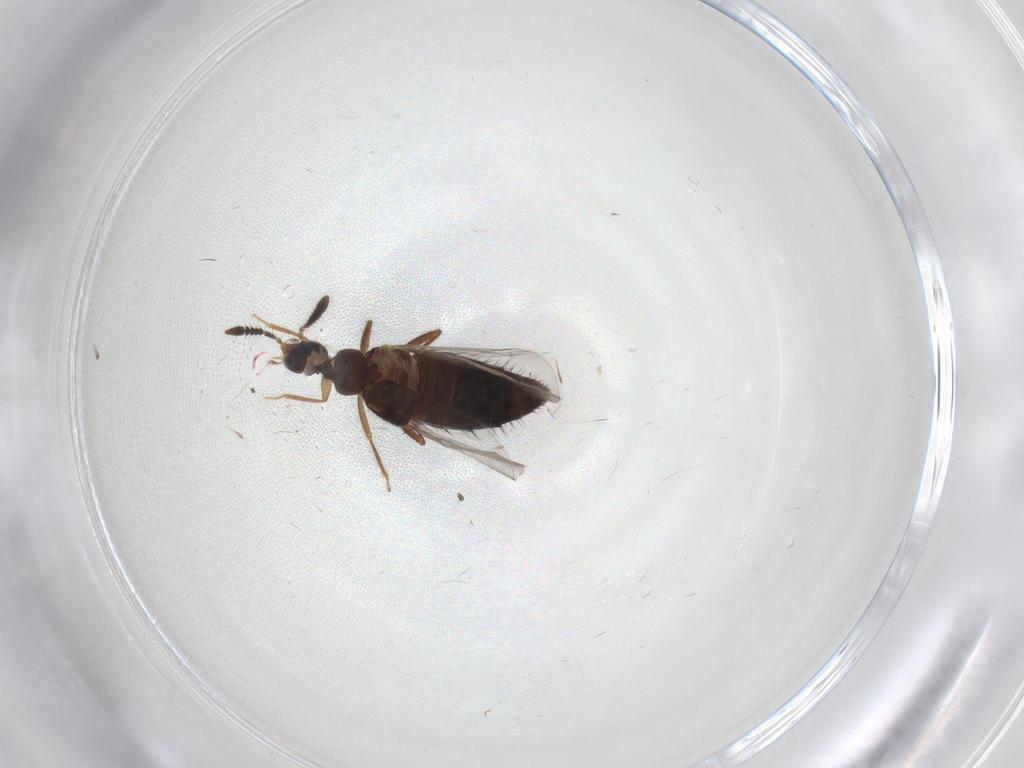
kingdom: Animalia
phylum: Arthropoda
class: Insecta
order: Coleoptera
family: Staphylinidae
